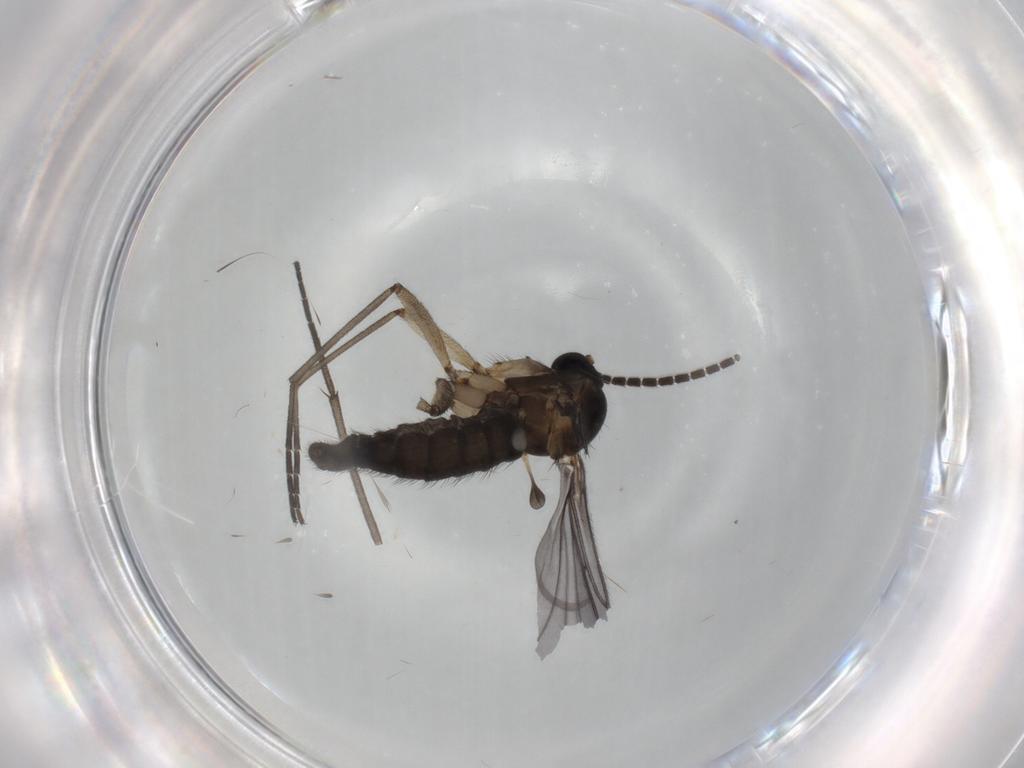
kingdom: Animalia
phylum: Arthropoda
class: Insecta
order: Diptera
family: Sciaridae
